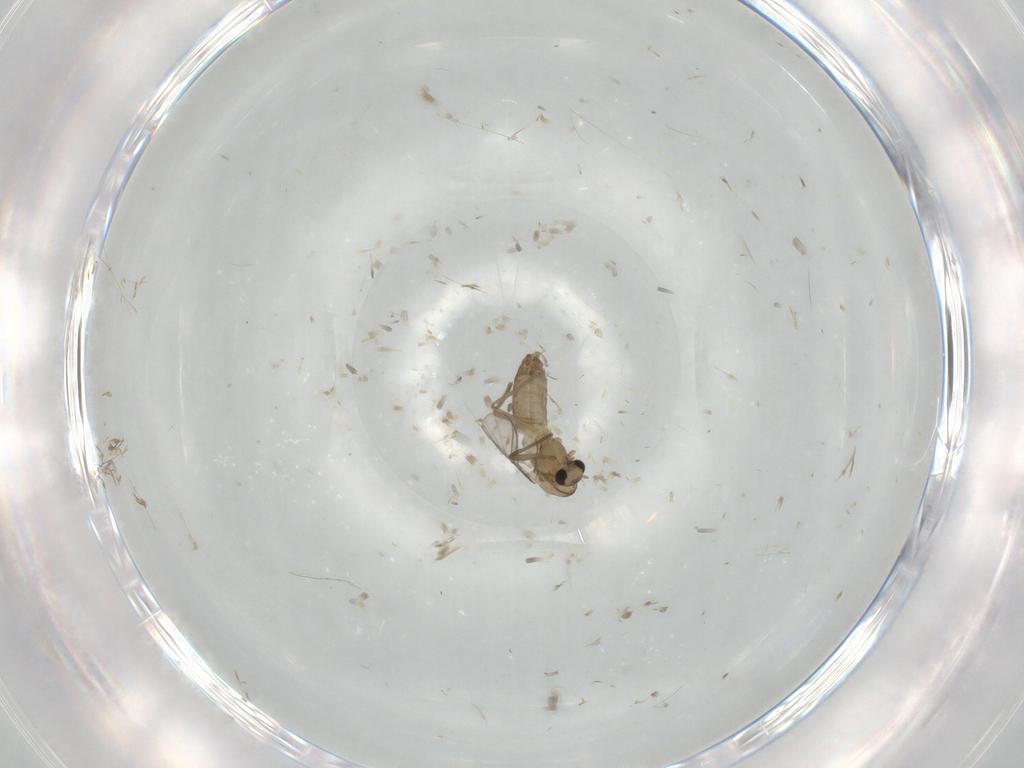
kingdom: Animalia
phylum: Arthropoda
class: Insecta
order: Diptera
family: Chironomidae
